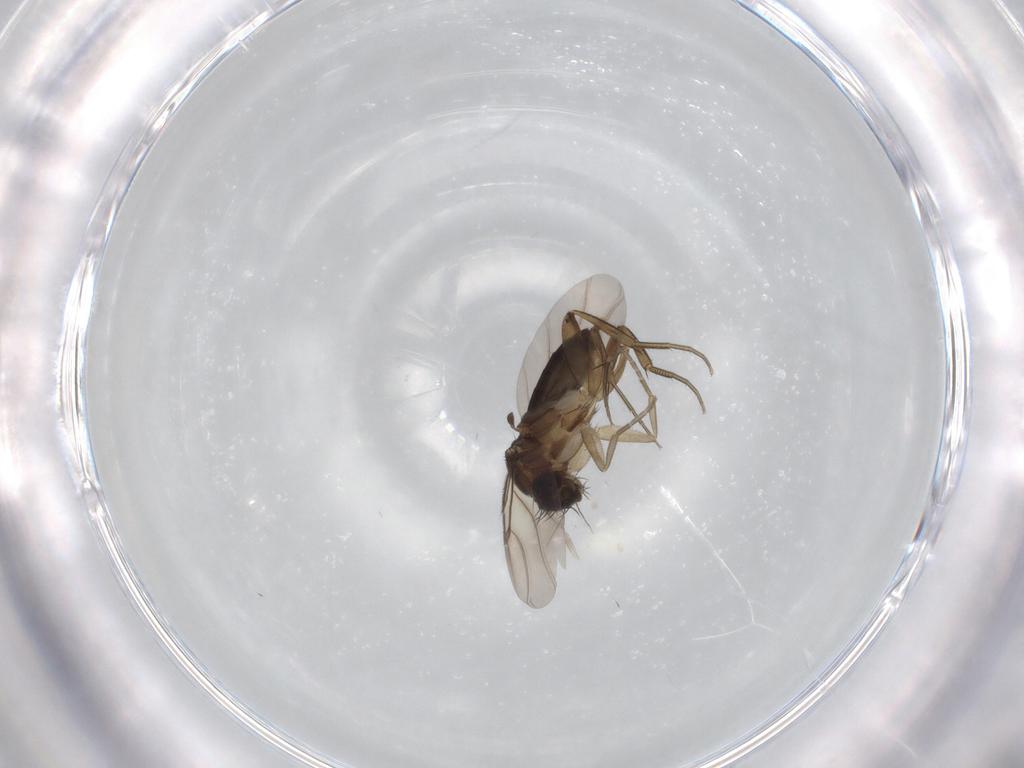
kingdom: Animalia
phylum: Arthropoda
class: Insecta
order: Diptera
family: Phoridae
